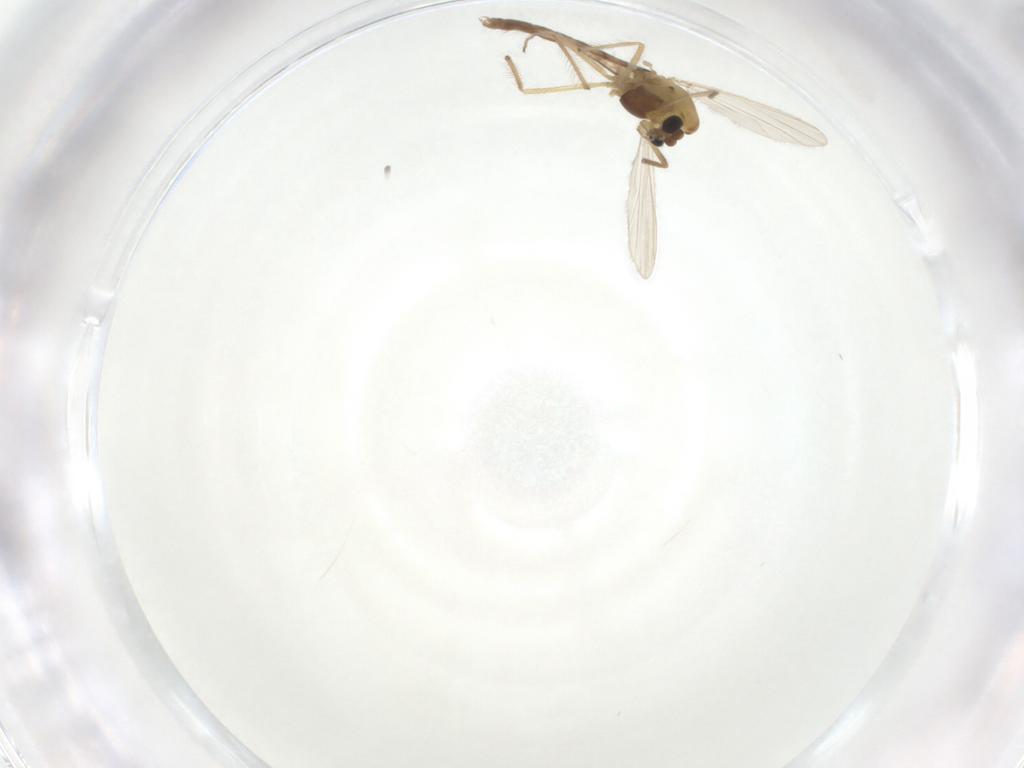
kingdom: Animalia
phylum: Arthropoda
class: Insecta
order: Diptera
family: Chironomidae
